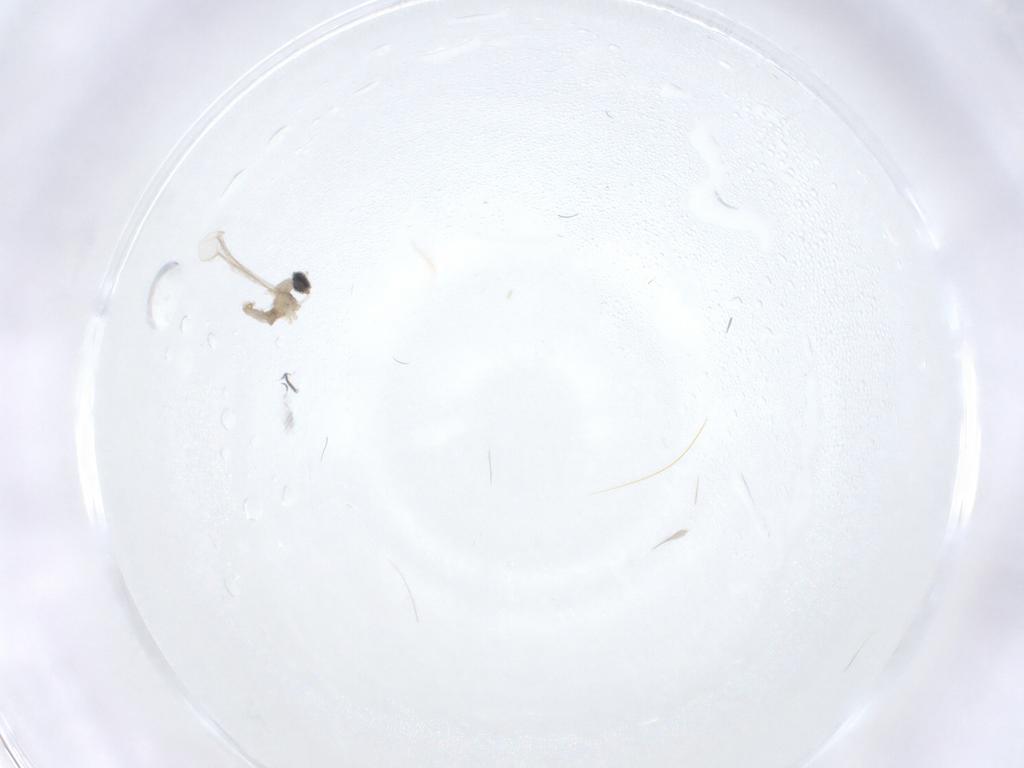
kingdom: Animalia
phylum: Arthropoda
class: Insecta
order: Diptera
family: Cecidomyiidae
